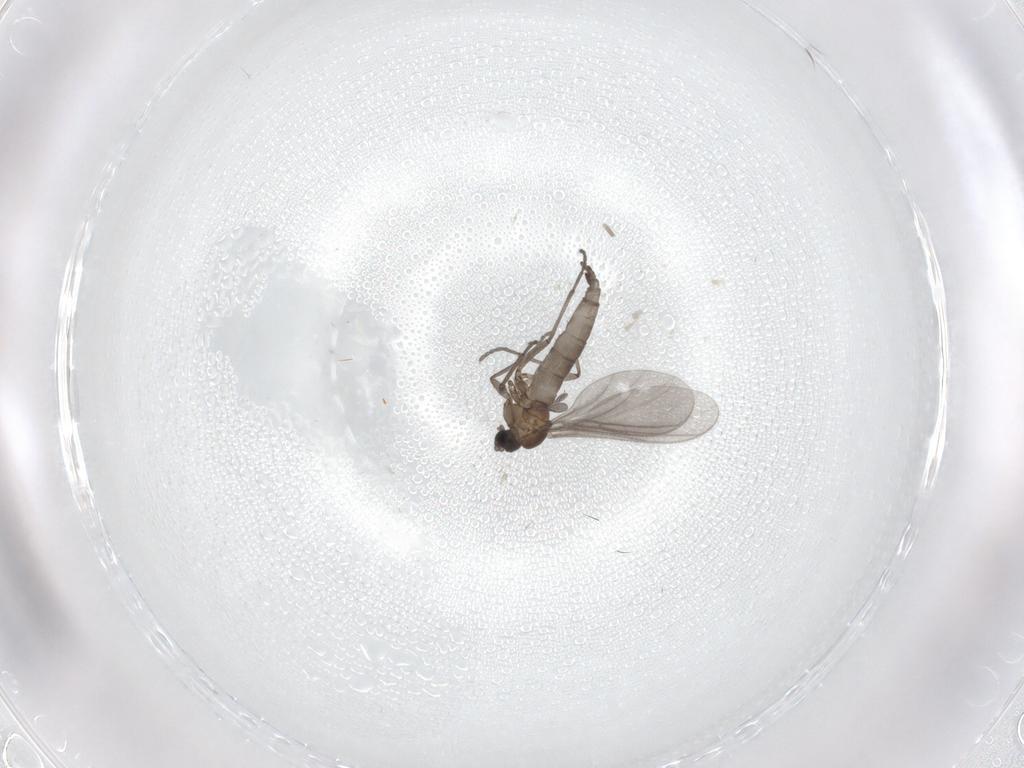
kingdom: Animalia
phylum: Arthropoda
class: Insecta
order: Diptera
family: Sciaridae
